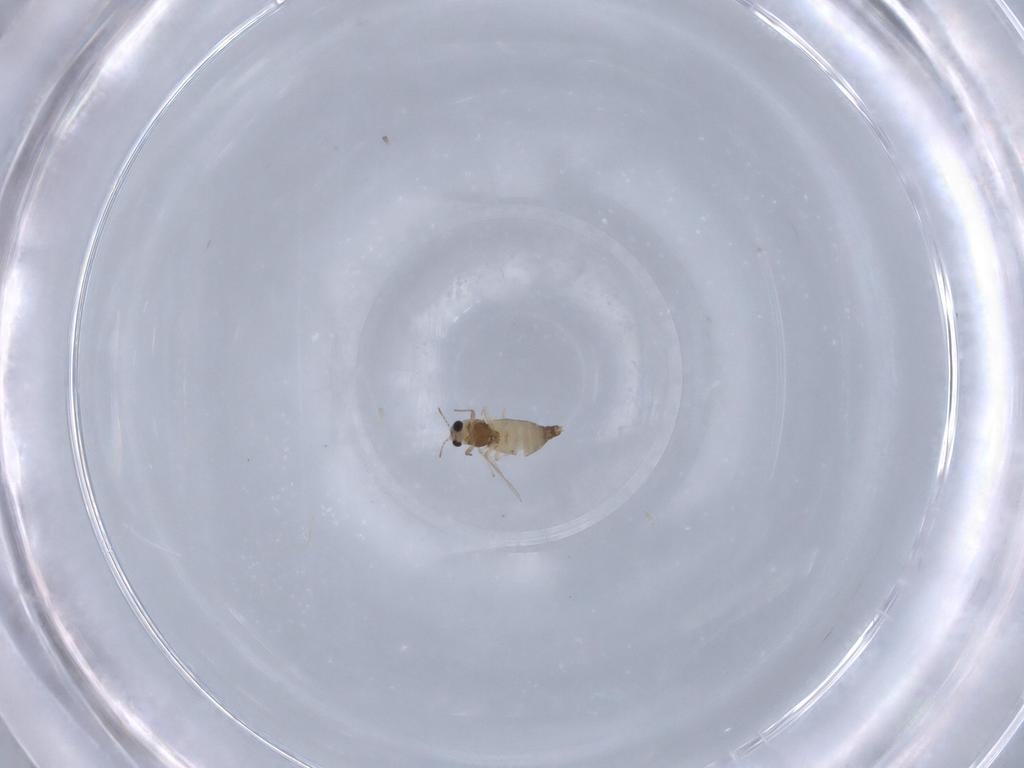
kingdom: Animalia
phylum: Arthropoda
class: Insecta
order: Diptera
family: Chironomidae
